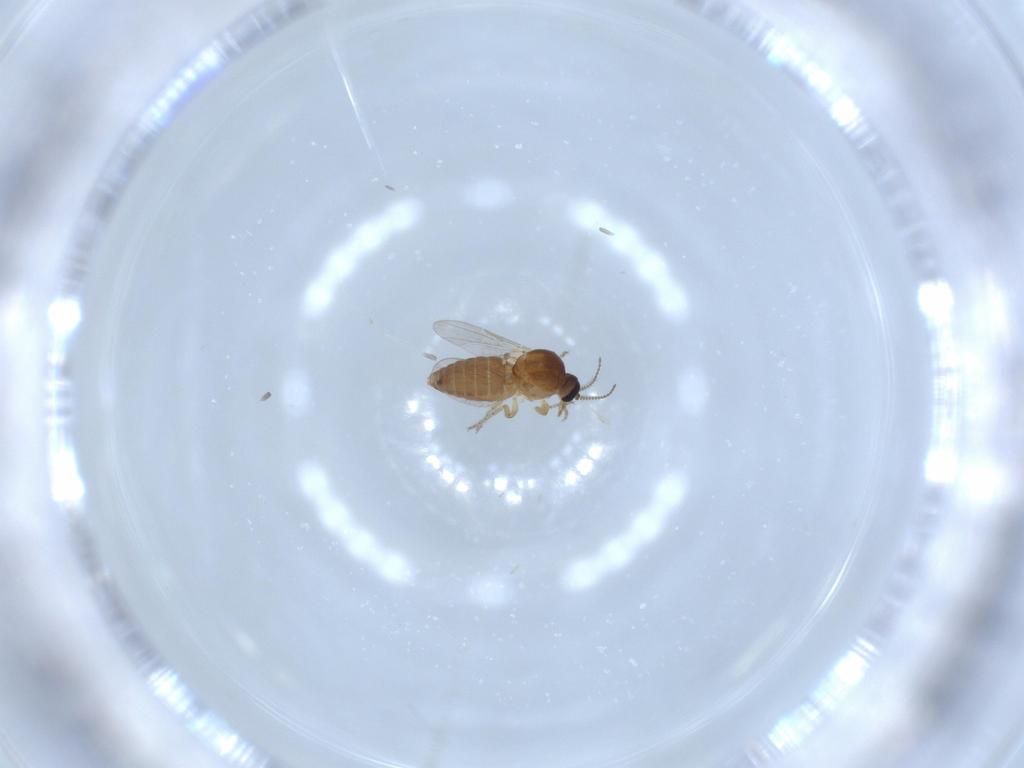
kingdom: Animalia
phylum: Arthropoda
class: Insecta
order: Diptera
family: Ceratopogonidae
